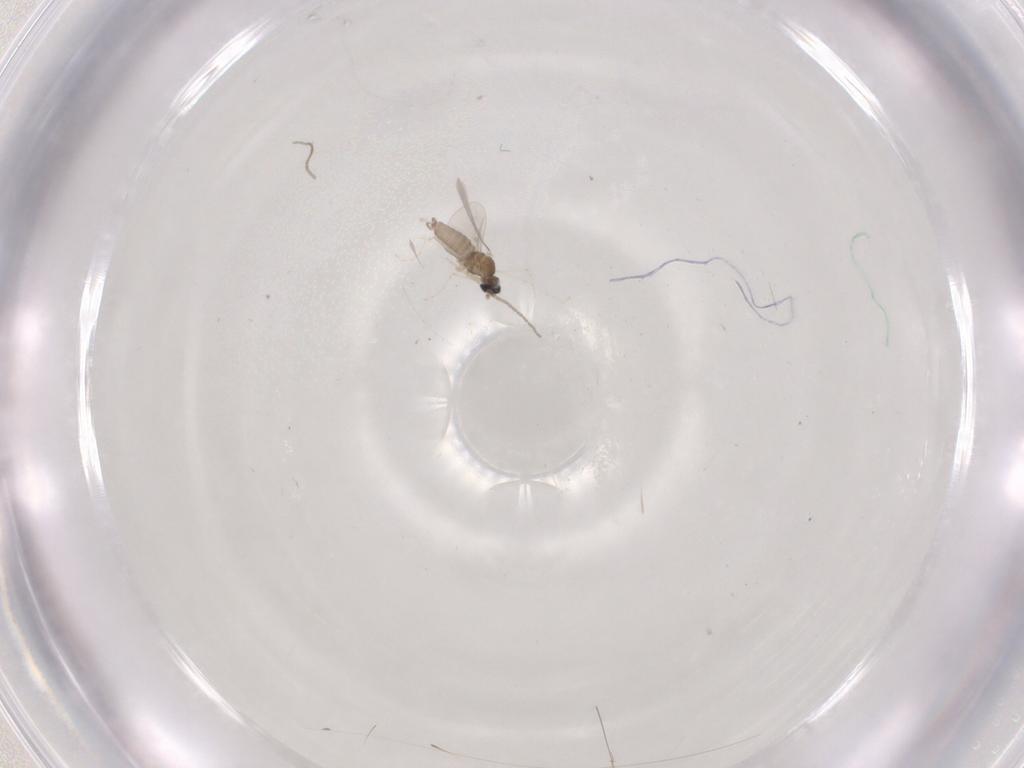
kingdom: Animalia
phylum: Arthropoda
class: Insecta
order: Diptera
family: Cecidomyiidae
